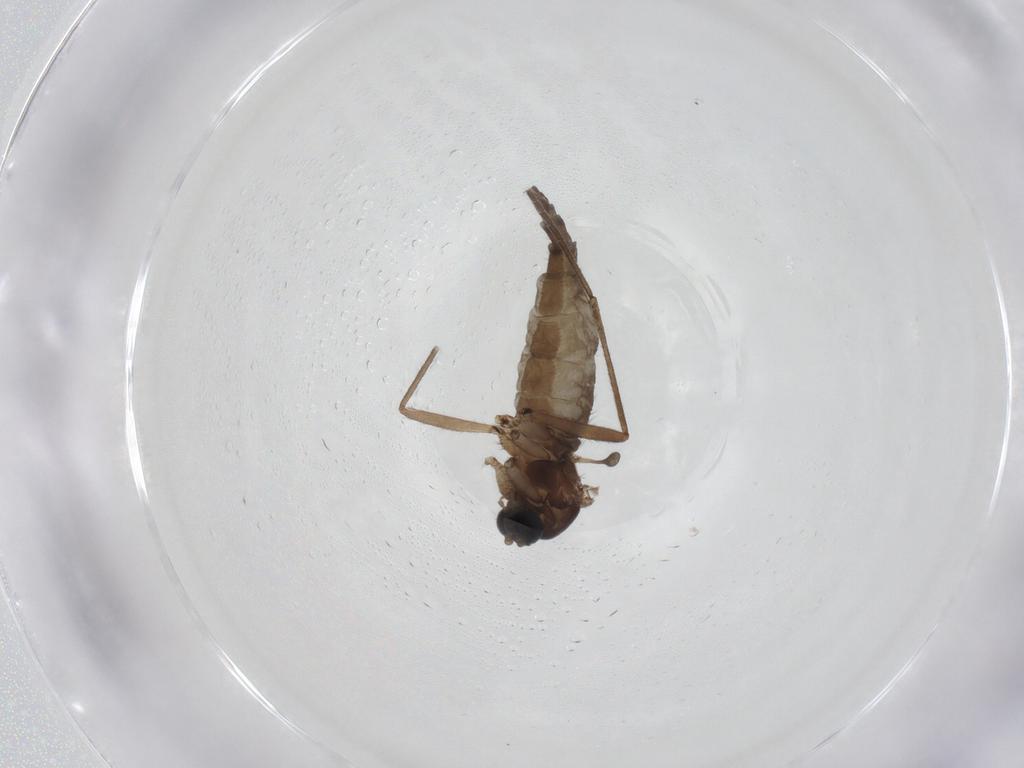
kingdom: Animalia
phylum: Arthropoda
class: Insecta
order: Diptera
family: Sciaridae
